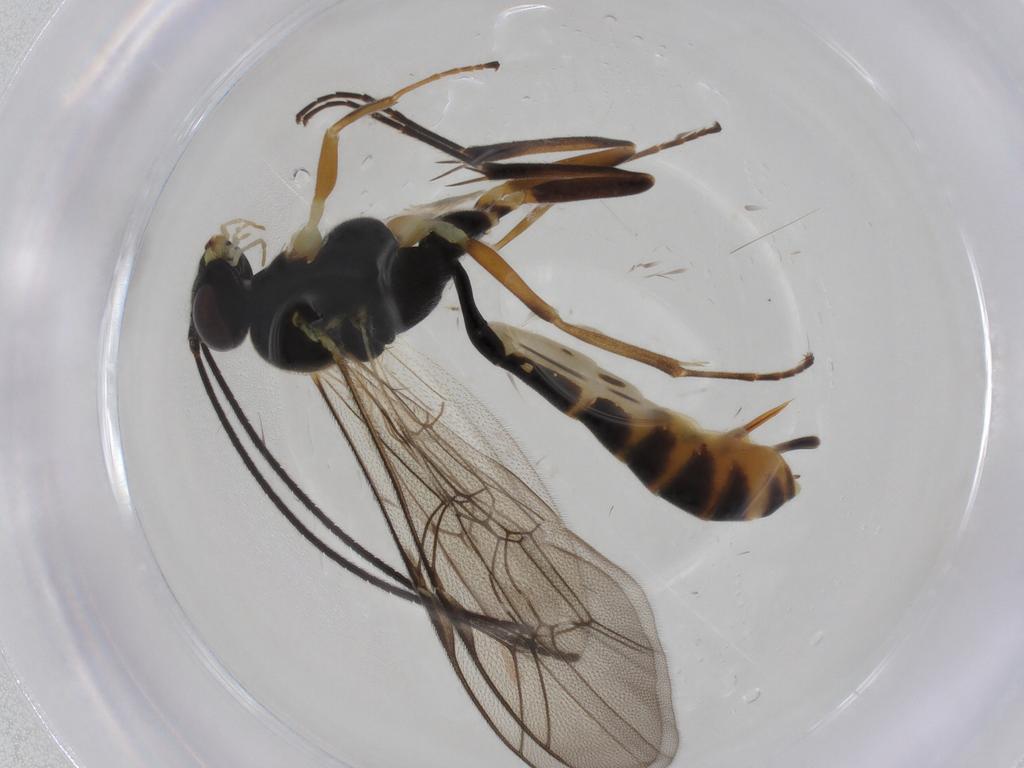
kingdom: Animalia
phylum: Arthropoda
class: Insecta
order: Hymenoptera
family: Ichneumonidae
